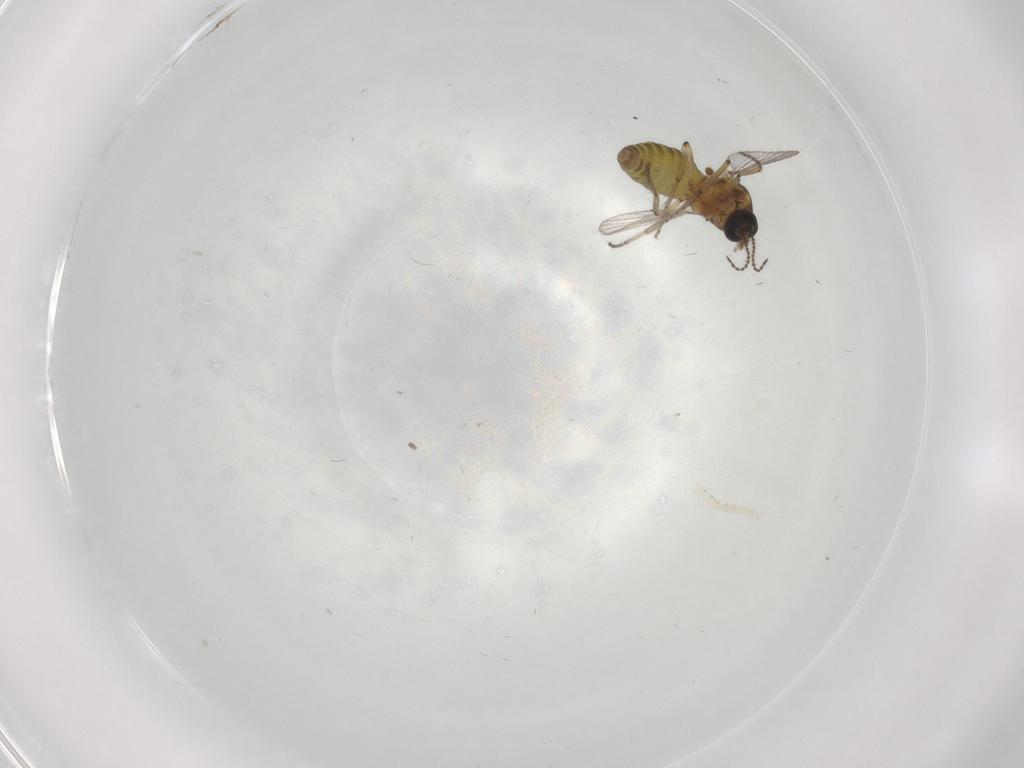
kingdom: Animalia
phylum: Arthropoda
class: Insecta
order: Diptera
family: Ceratopogonidae
